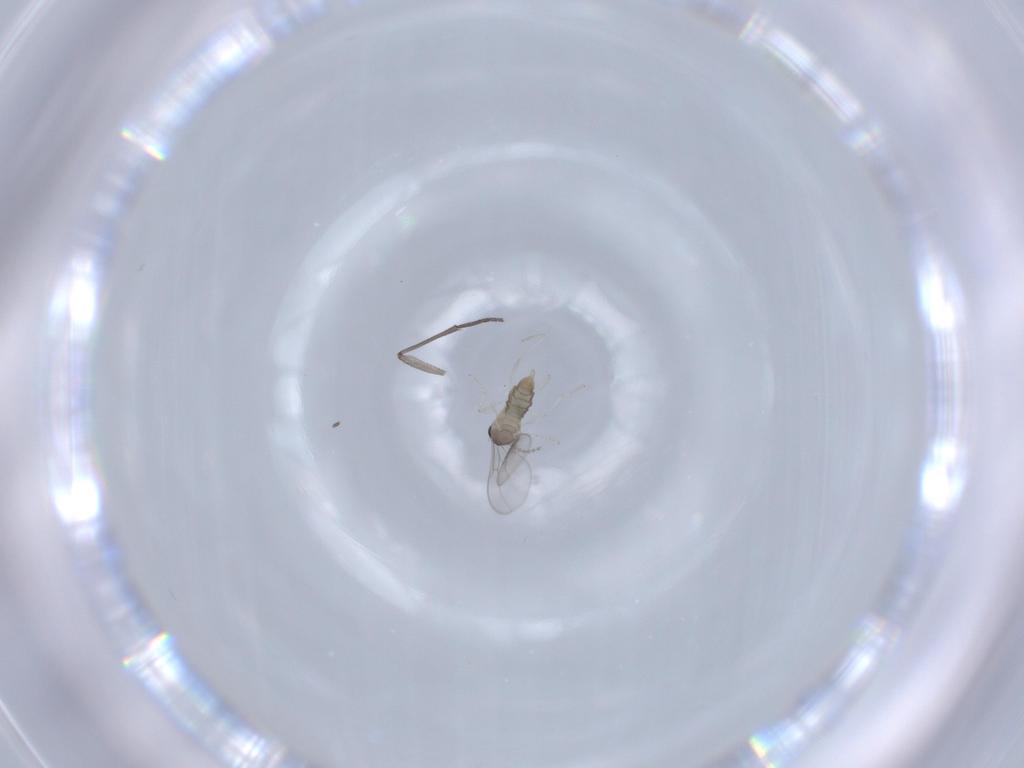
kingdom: Animalia
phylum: Arthropoda
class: Insecta
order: Diptera
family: Cecidomyiidae
